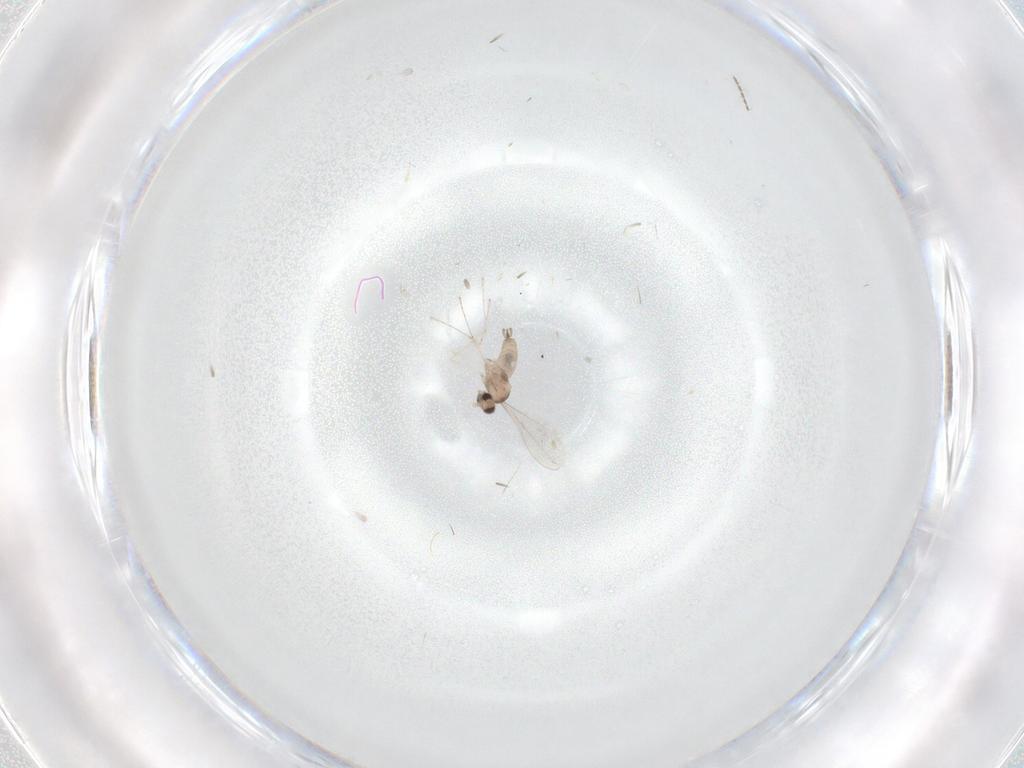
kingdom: Animalia
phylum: Arthropoda
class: Insecta
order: Diptera
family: Cecidomyiidae
